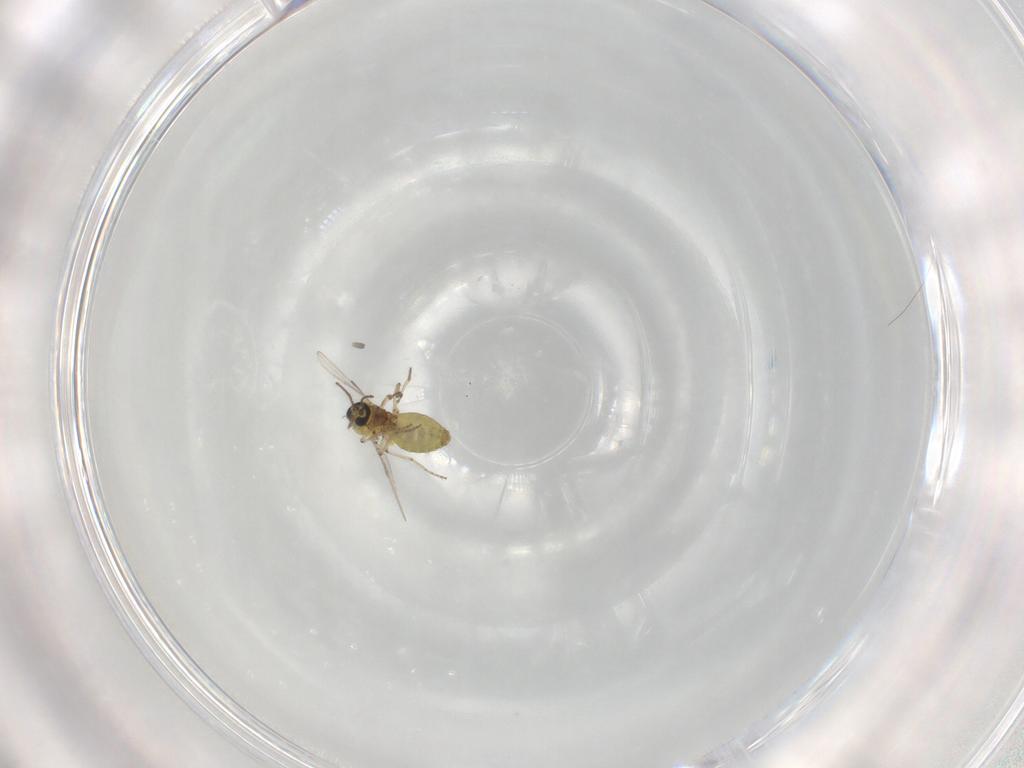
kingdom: Animalia
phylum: Arthropoda
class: Insecta
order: Diptera
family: Ceratopogonidae
